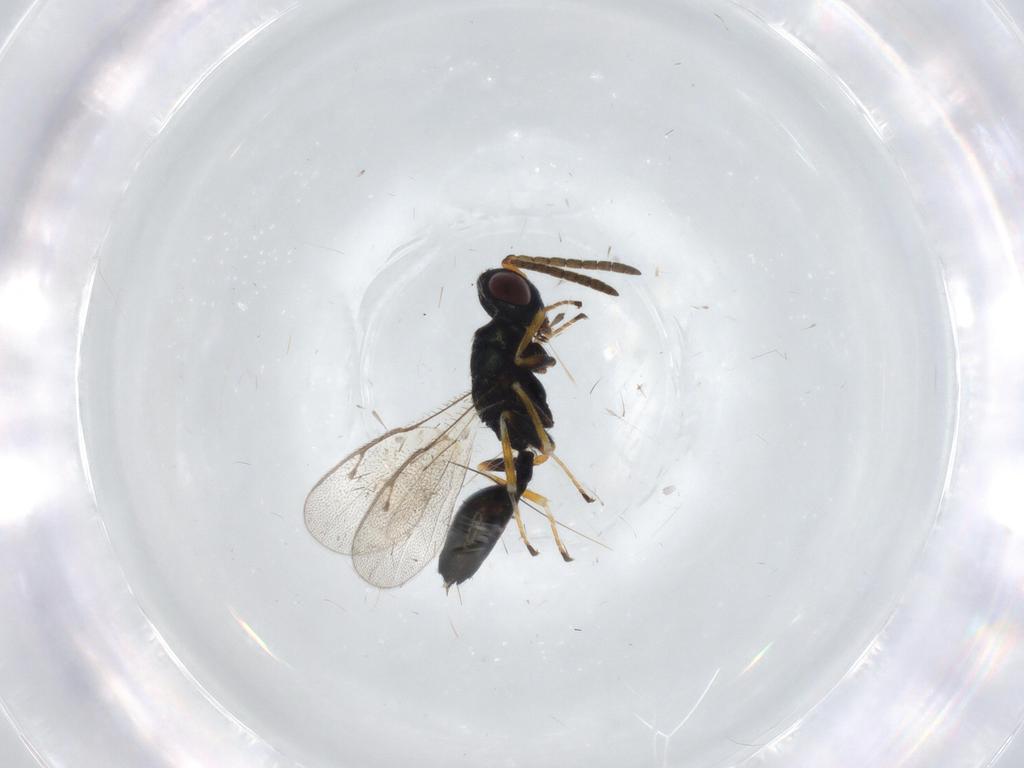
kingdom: Animalia
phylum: Arthropoda
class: Insecta
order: Hymenoptera
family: Pteromalidae
